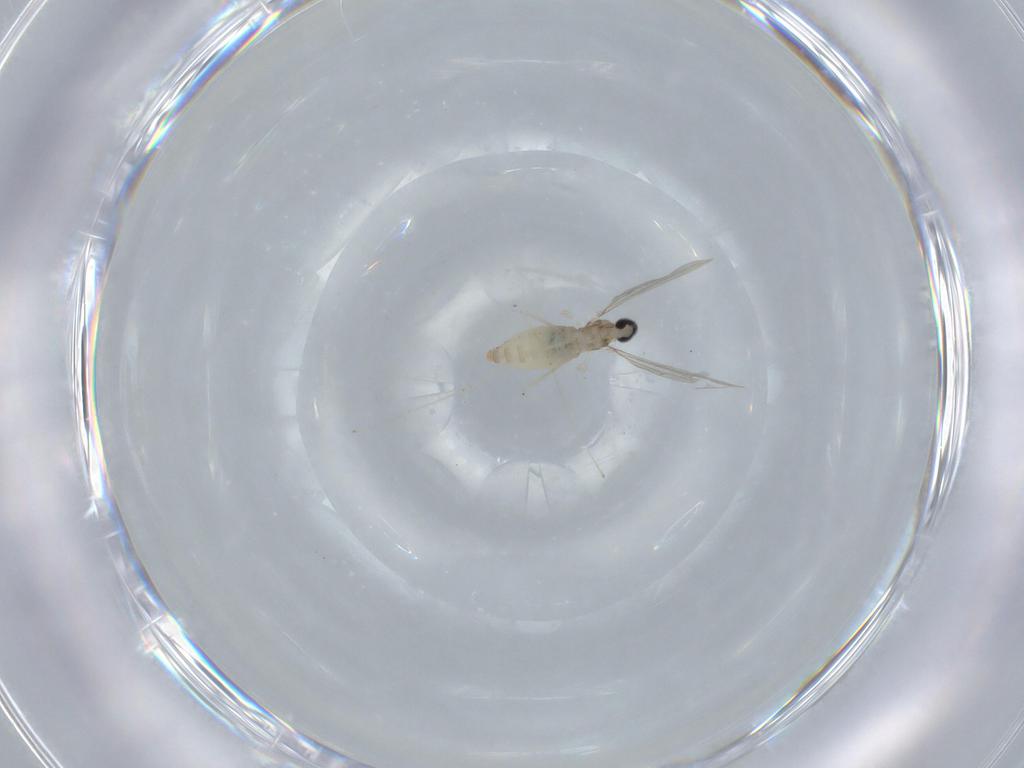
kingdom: Animalia
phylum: Arthropoda
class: Insecta
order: Diptera
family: Cecidomyiidae
